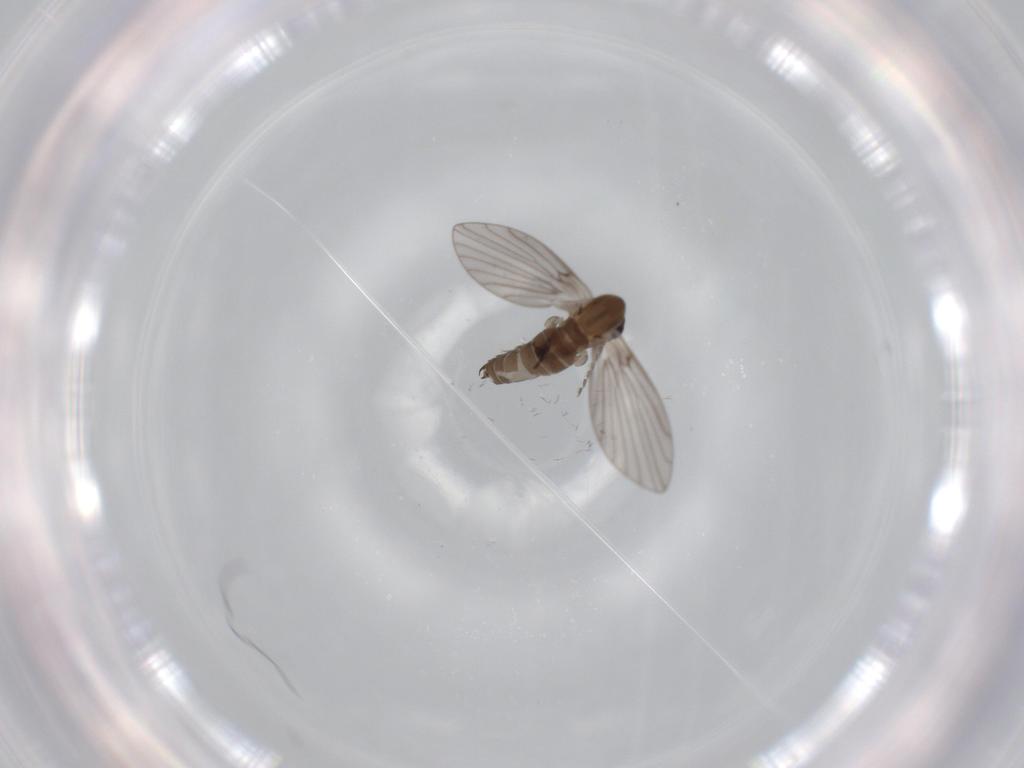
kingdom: Animalia
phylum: Arthropoda
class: Insecta
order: Diptera
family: Psychodidae
